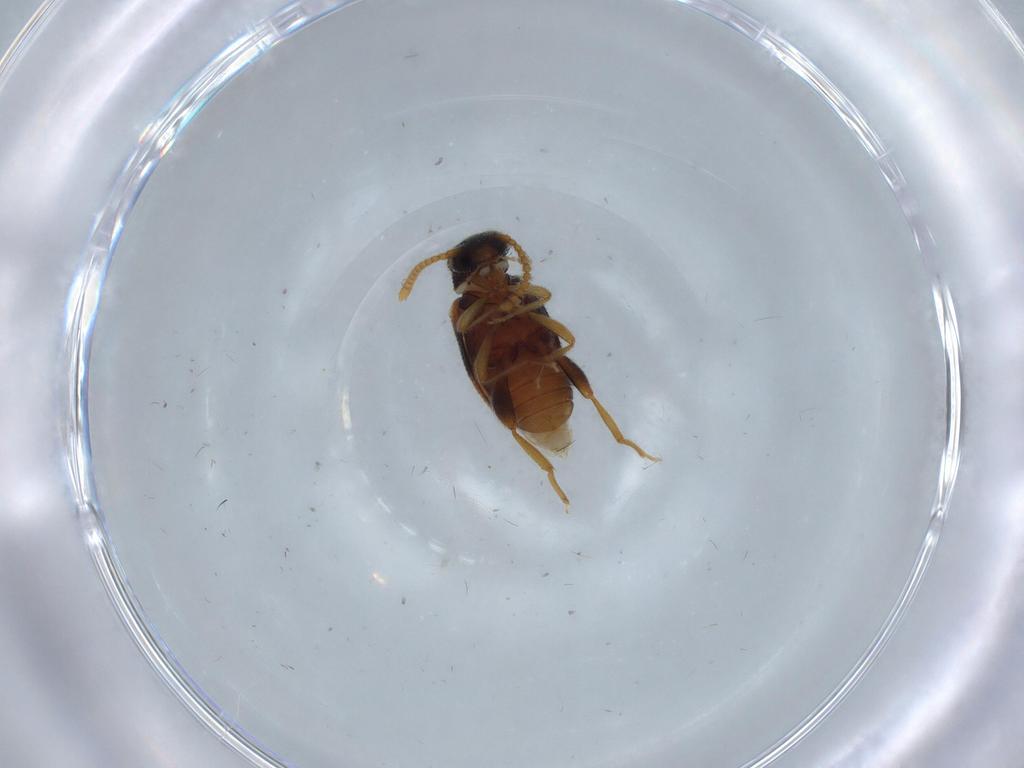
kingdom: Animalia
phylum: Arthropoda
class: Insecta
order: Coleoptera
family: Aderidae
